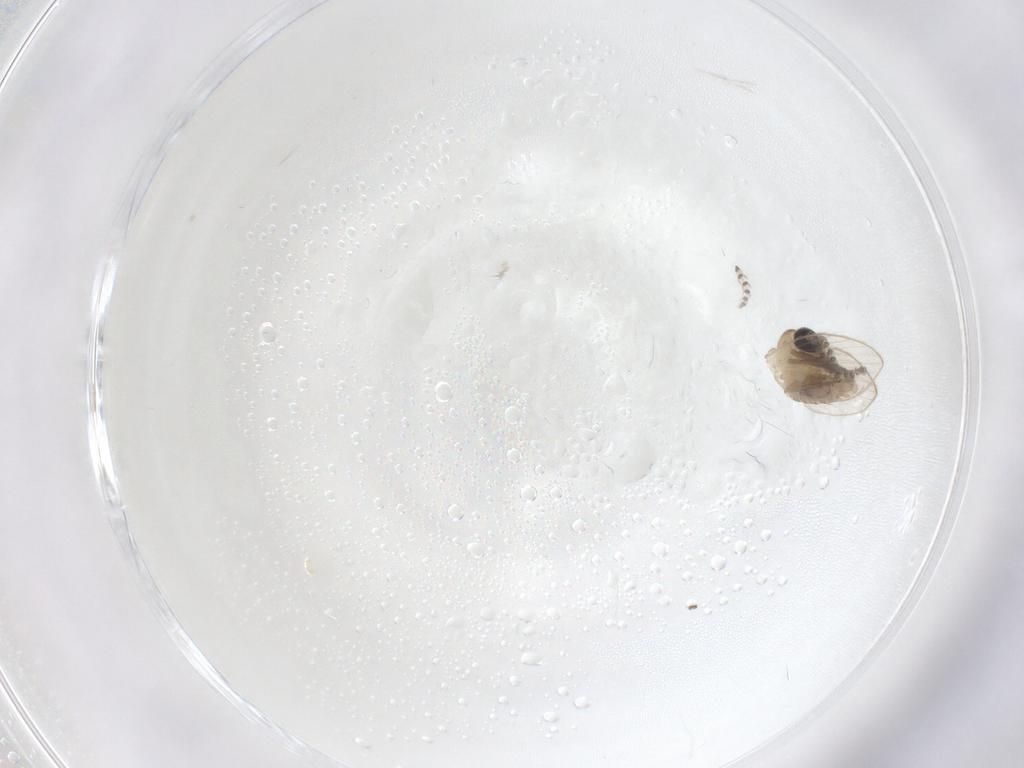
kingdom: Animalia
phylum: Arthropoda
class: Insecta
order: Diptera
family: Psychodidae
